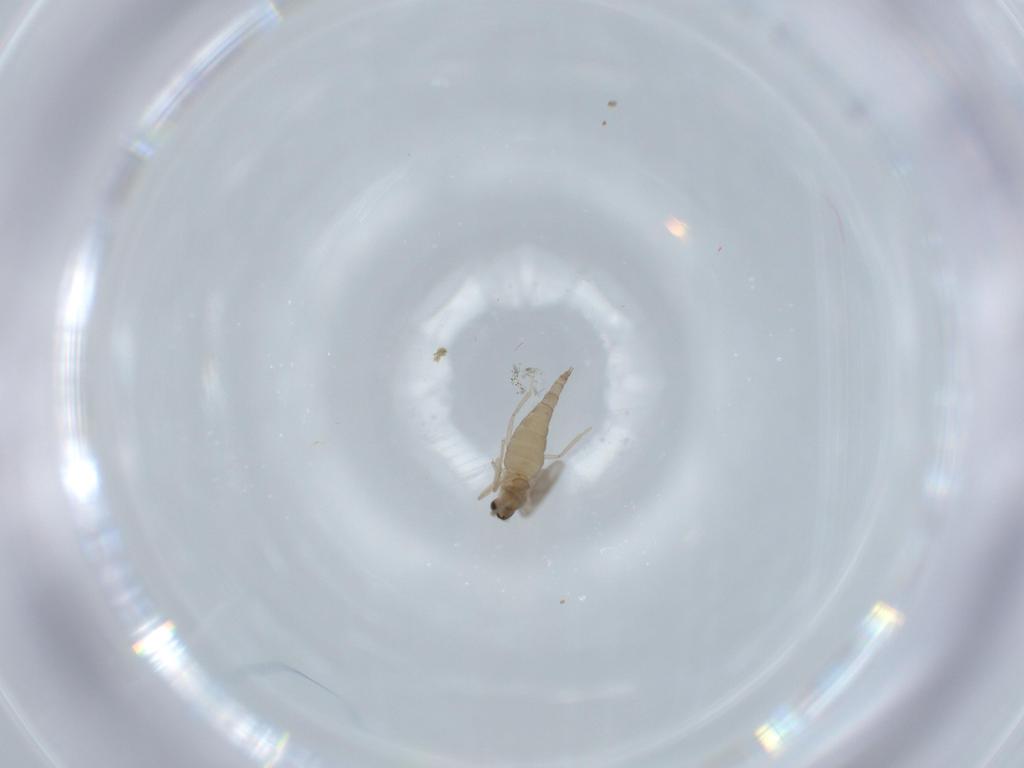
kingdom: Animalia
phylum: Arthropoda
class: Insecta
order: Diptera
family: Cecidomyiidae
